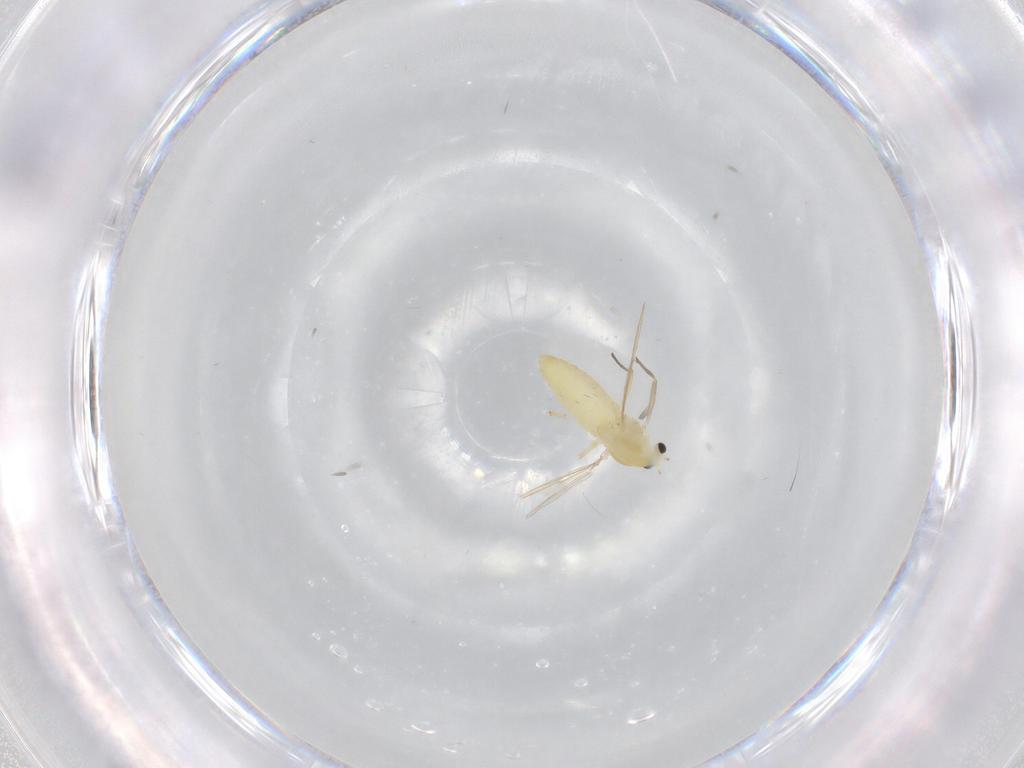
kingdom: Animalia
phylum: Arthropoda
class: Insecta
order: Diptera
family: Chironomidae
